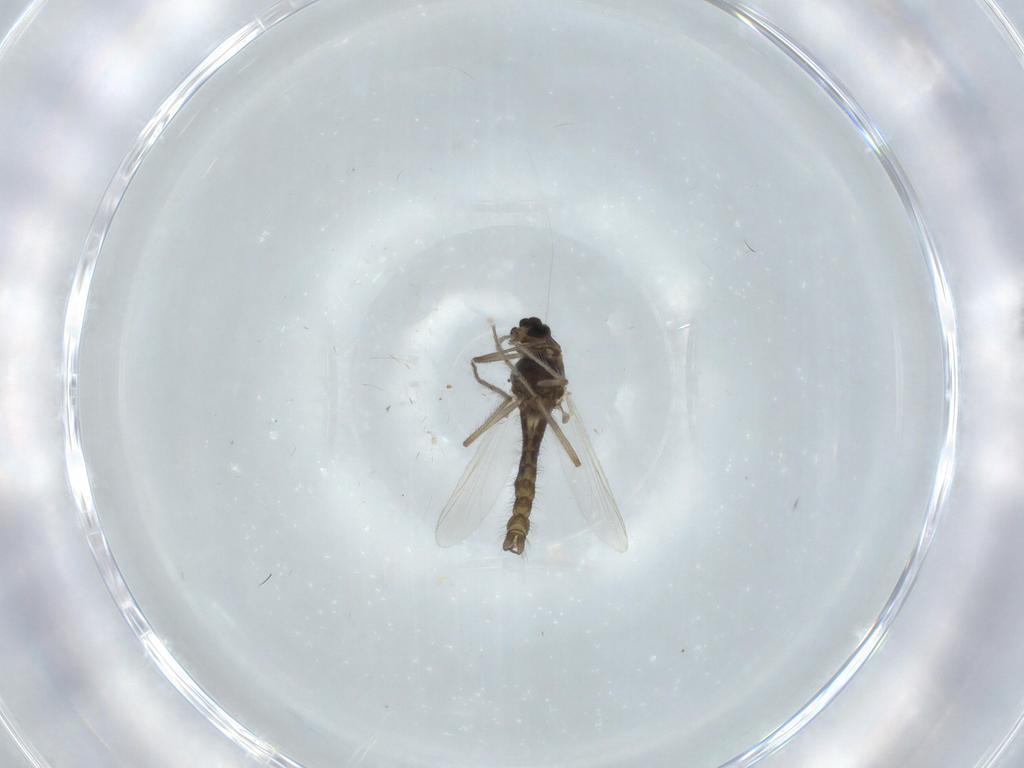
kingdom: Animalia
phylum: Arthropoda
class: Insecta
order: Diptera
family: Chironomidae
